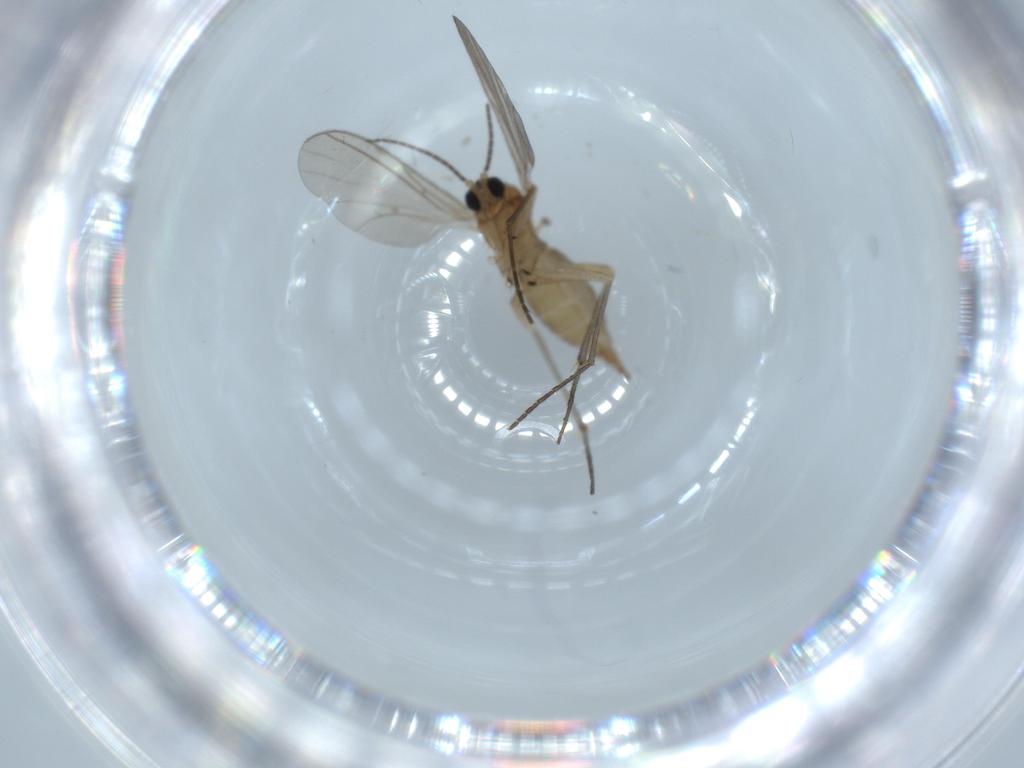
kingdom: Animalia
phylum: Arthropoda
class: Insecta
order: Diptera
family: Sciaridae
